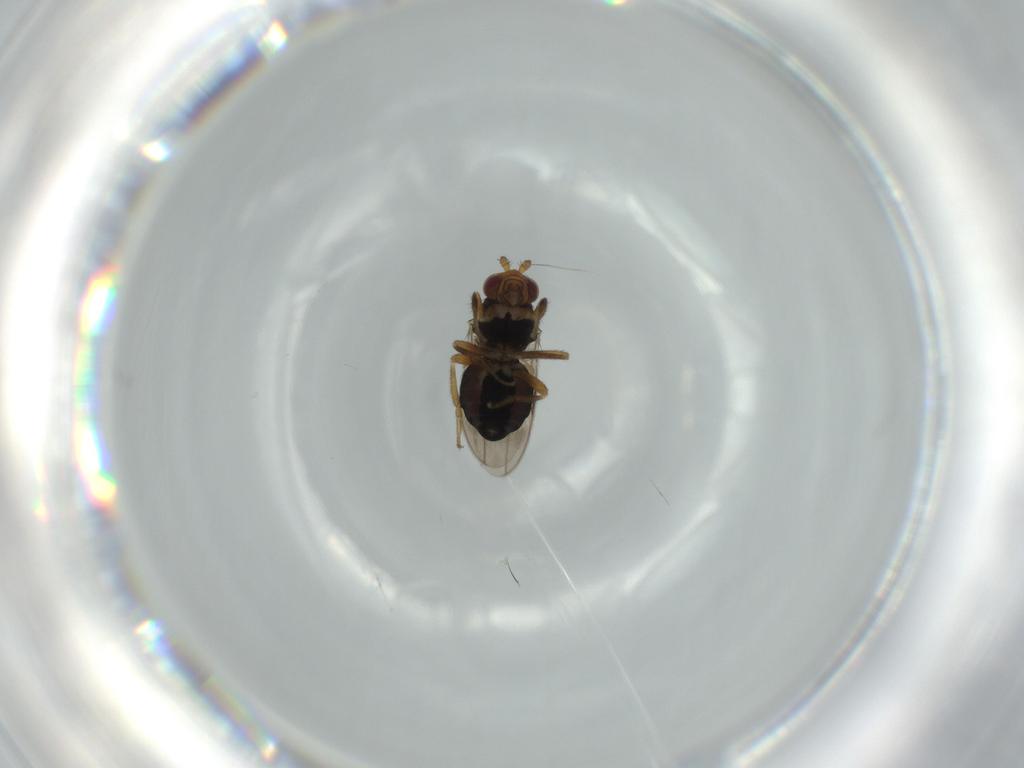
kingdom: Animalia
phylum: Arthropoda
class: Insecta
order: Diptera
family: Sphaeroceridae
